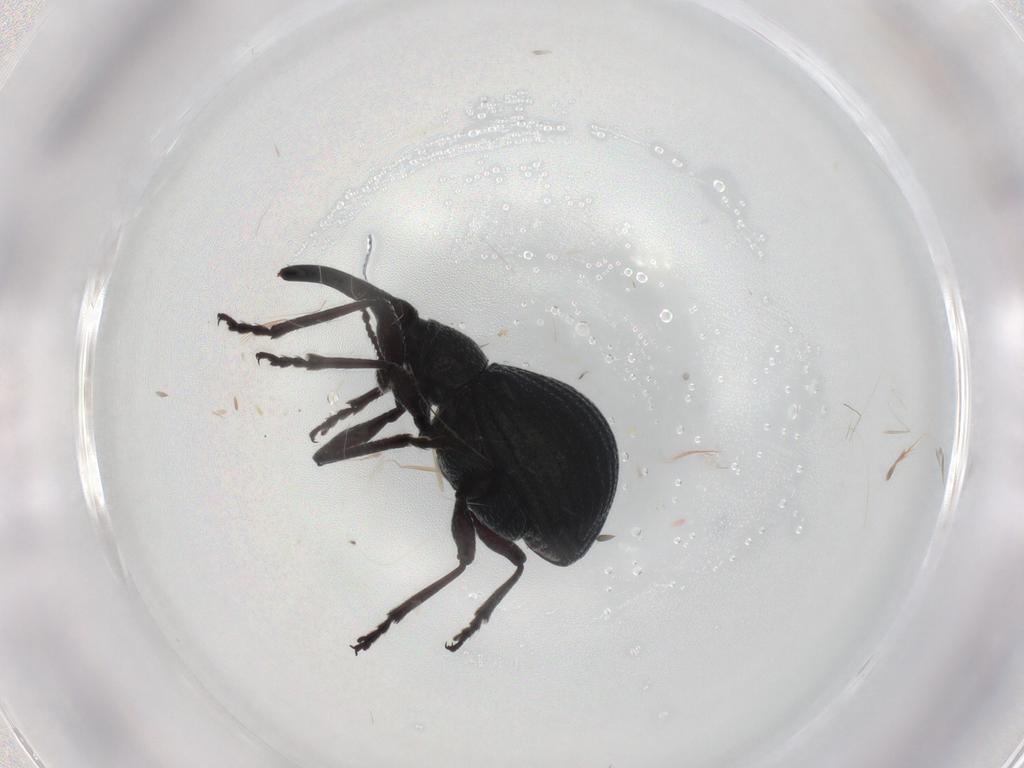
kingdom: Animalia
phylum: Arthropoda
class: Insecta
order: Coleoptera
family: Brentidae
